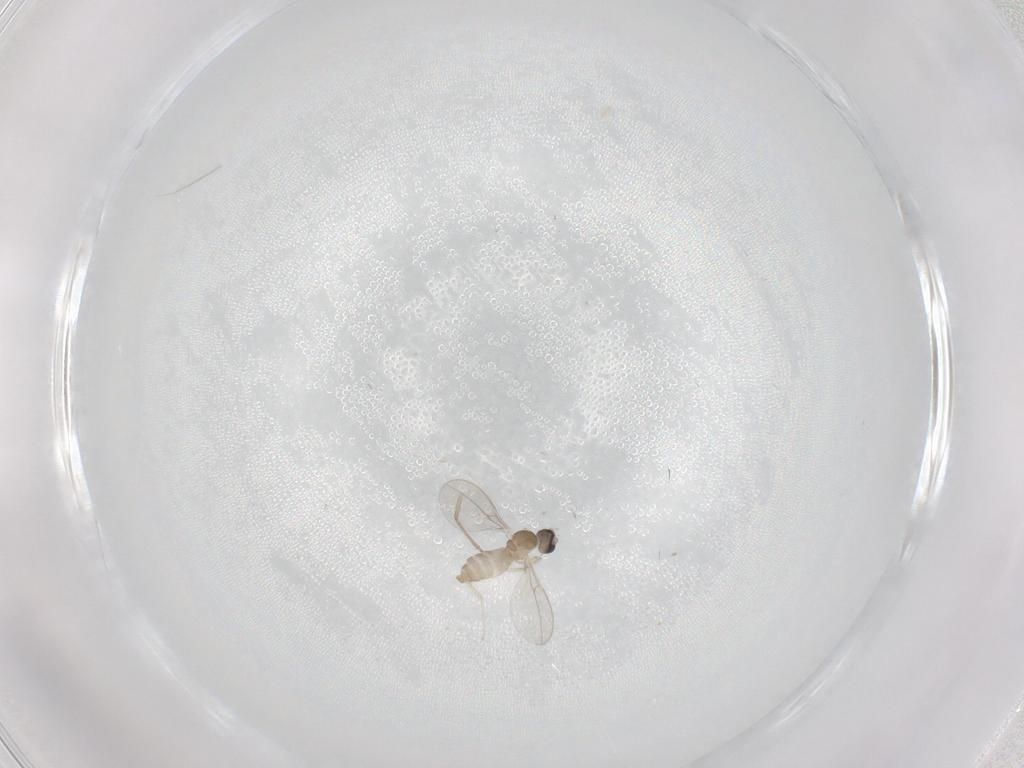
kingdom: Animalia
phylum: Arthropoda
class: Insecta
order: Diptera
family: Cecidomyiidae
